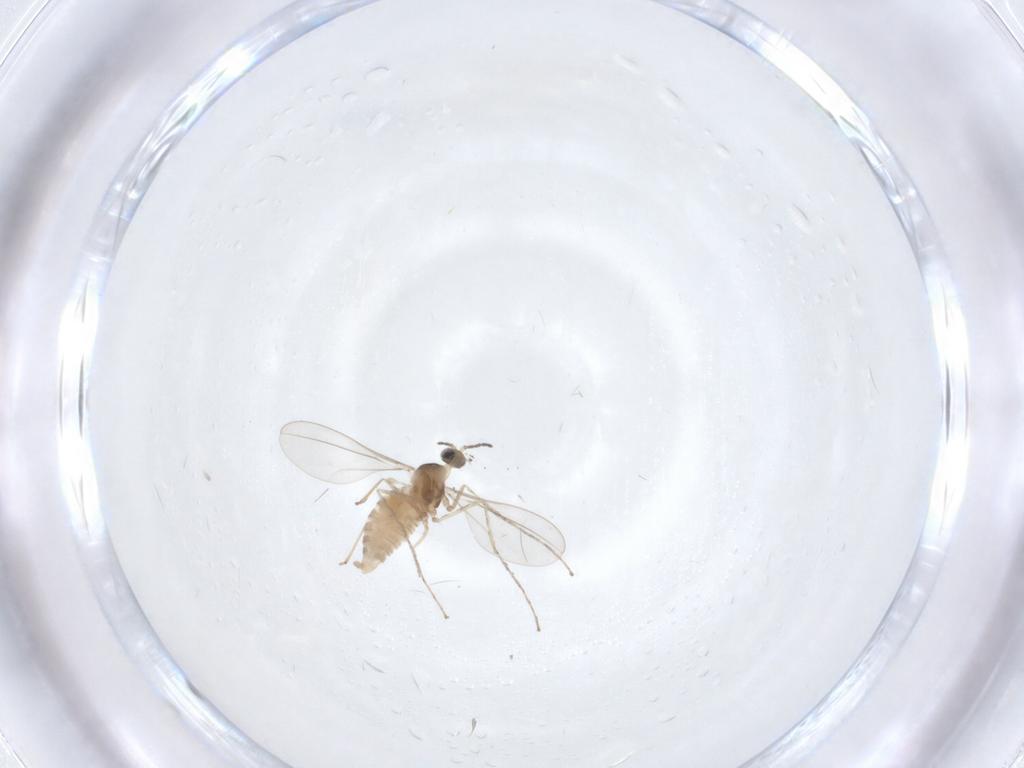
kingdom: Animalia
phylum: Arthropoda
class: Insecta
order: Diptera
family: Cecidomyiidae
